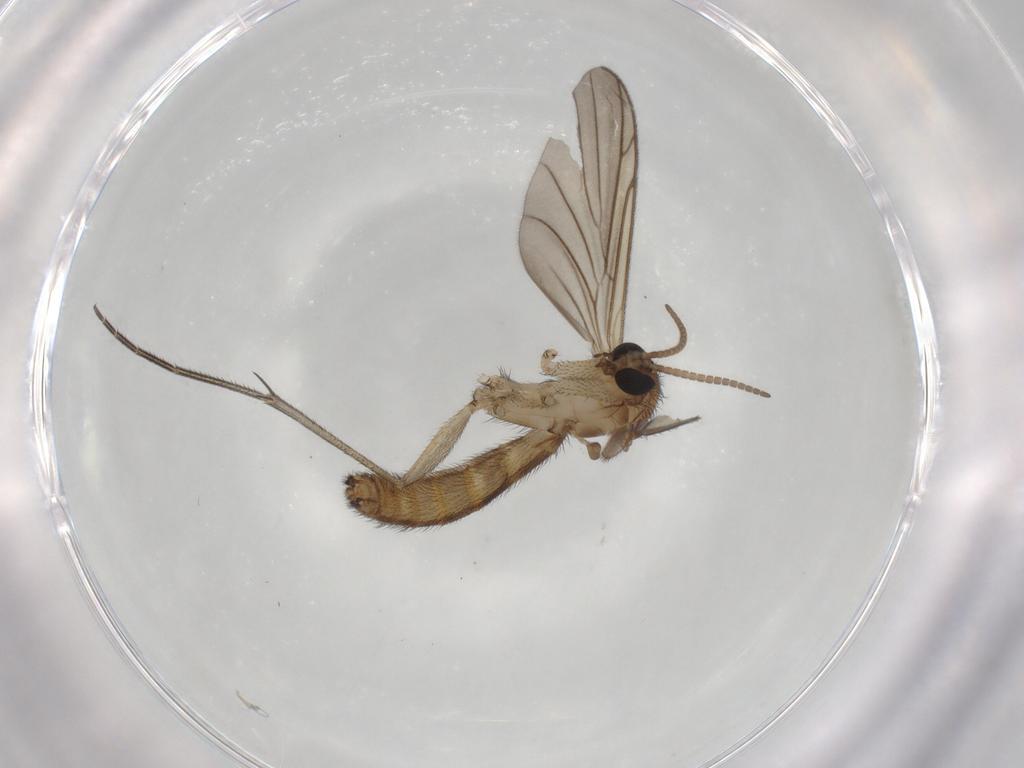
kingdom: Animalia
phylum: Arthropoda
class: Insecta
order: Diptera
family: Keroplatidae
